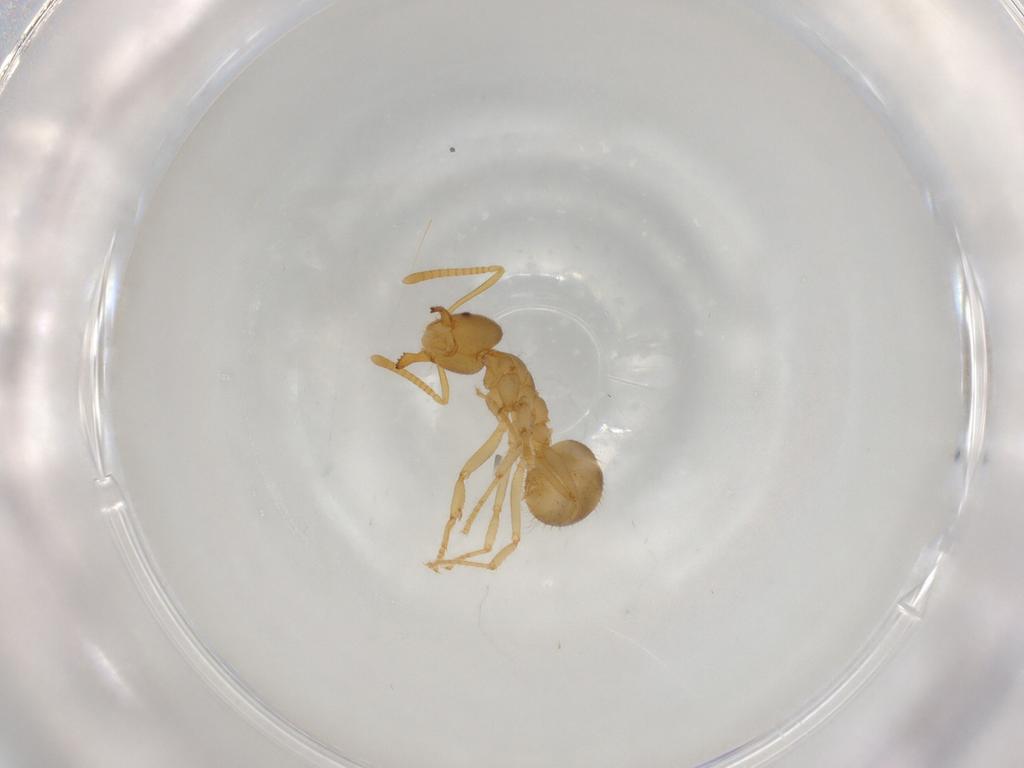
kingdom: Animalia
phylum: Arthropoda
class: Insecta
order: Hymenoptera
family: Formicidae
